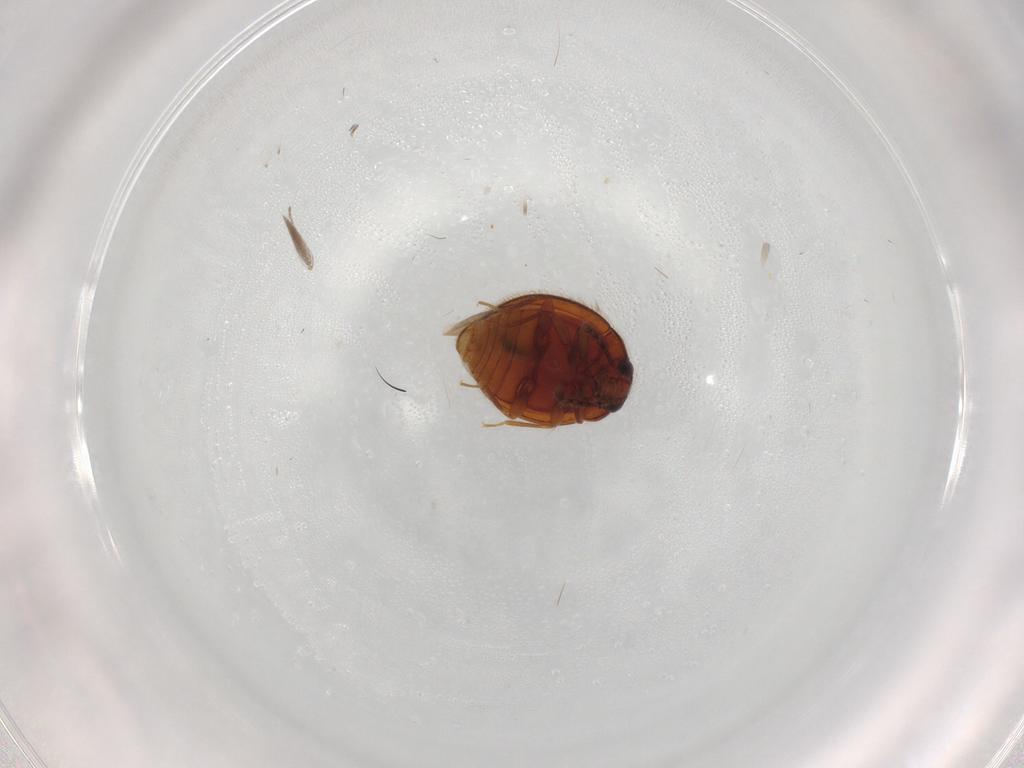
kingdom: Animalia
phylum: Arthropoda
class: Insecta
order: Coleoptera
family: Anamorphidae
